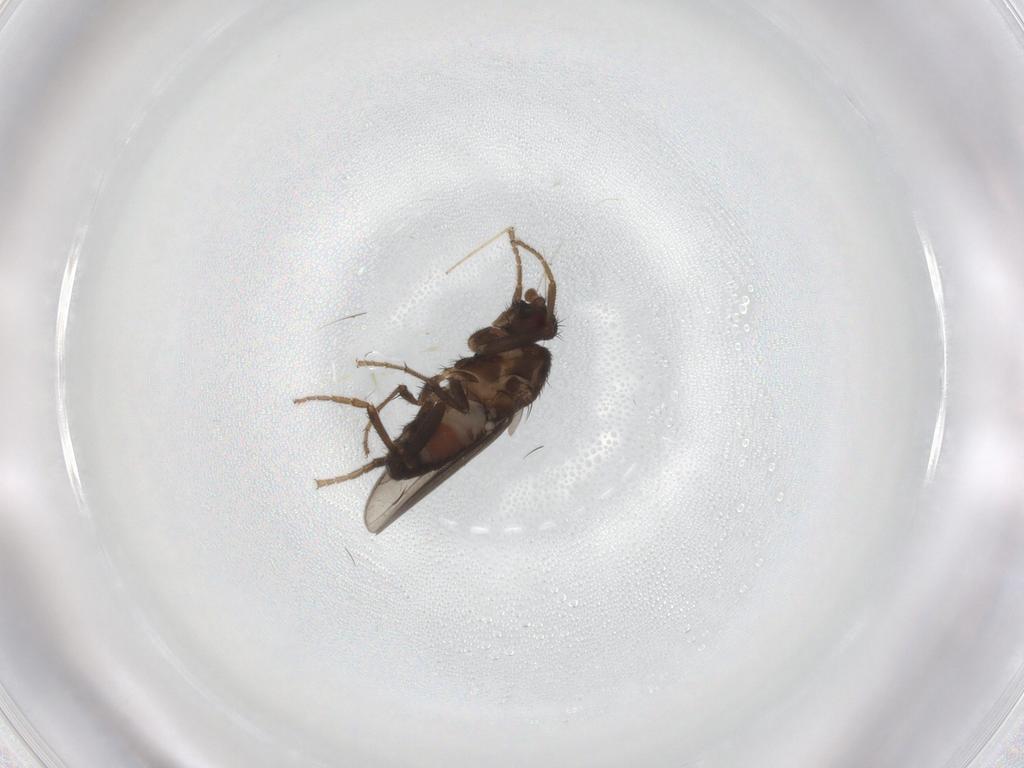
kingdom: Animalia
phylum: Arthropoda
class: Insecta
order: Diptera
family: Chironomidae
